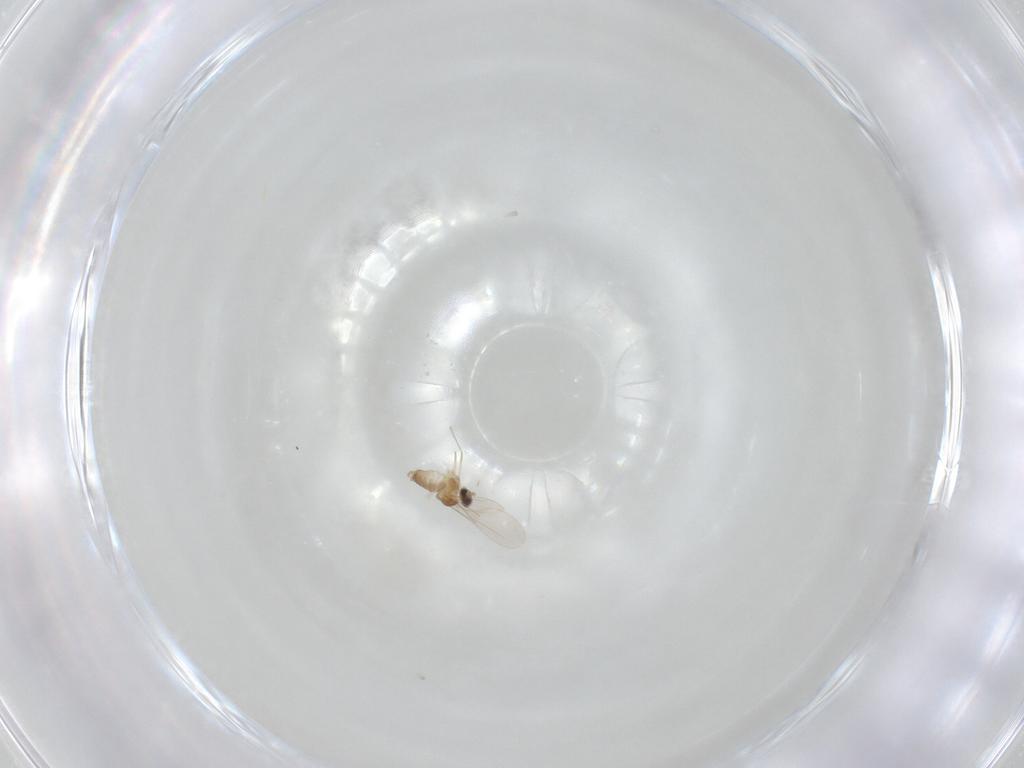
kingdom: Animalia
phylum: Arthropoda
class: Insecta
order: Diptera
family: Cecidomyiidae
